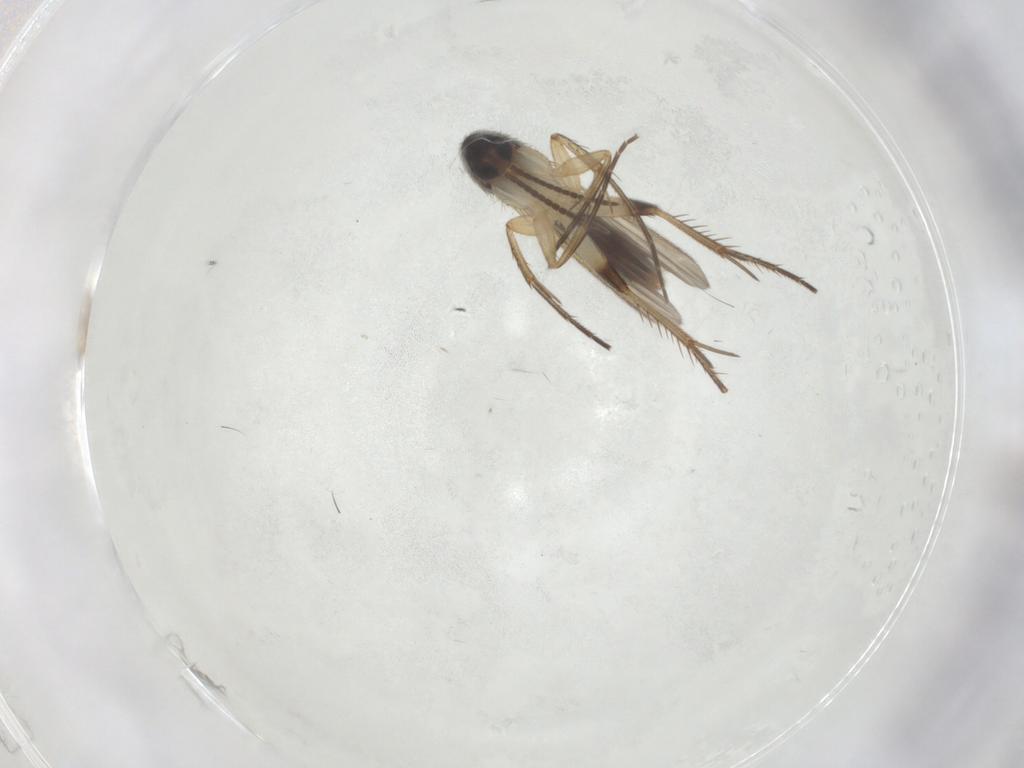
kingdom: Animalia
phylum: Arthropoda
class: Insecta
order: Diptera
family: Mycetophilidae
